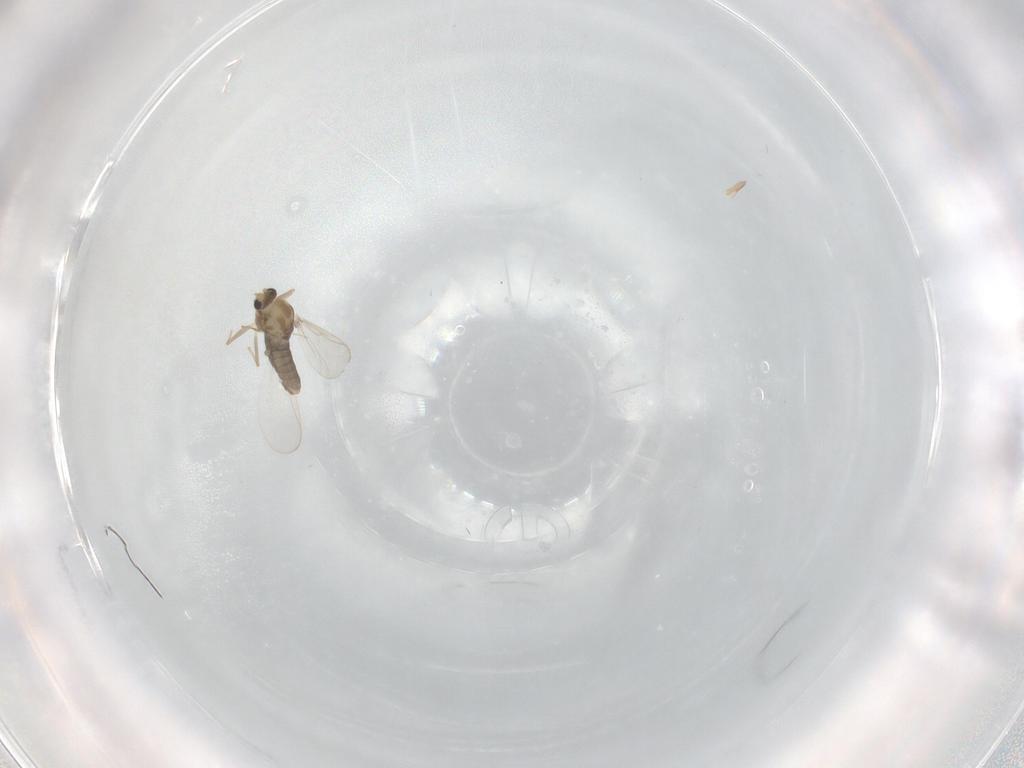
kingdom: Animalia
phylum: Arthropoda
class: Insecta
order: Diptera
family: Chironomidae
